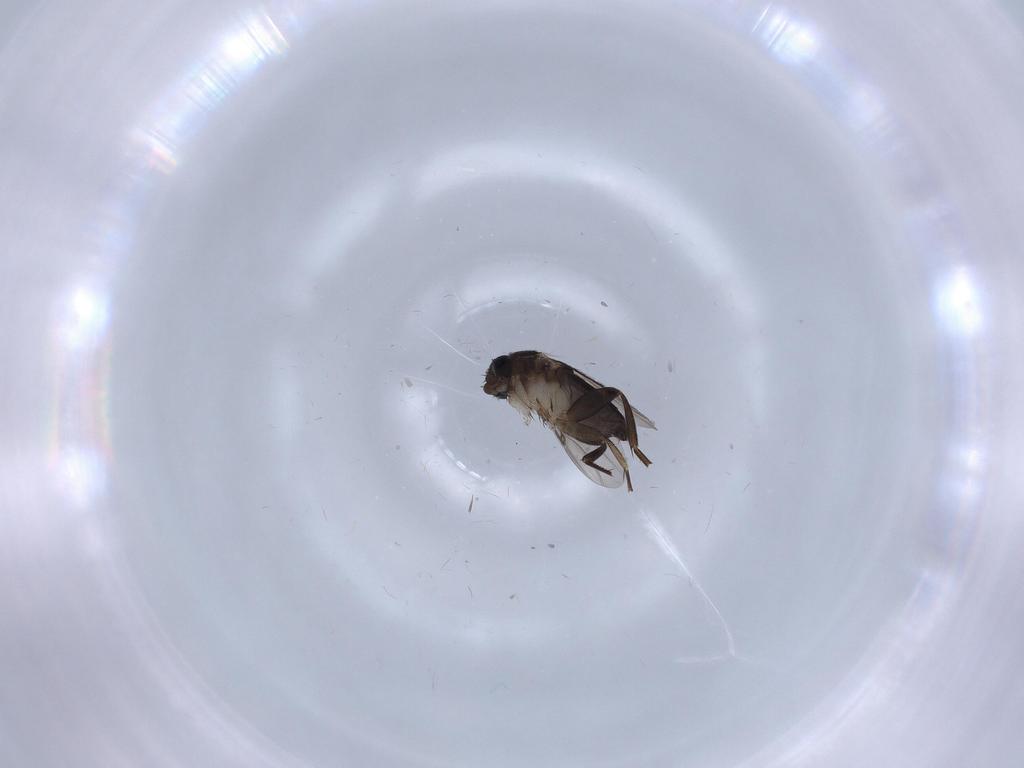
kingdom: Animalia
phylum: Arthropoda
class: Insecta
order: Diptera
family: Phoridae
